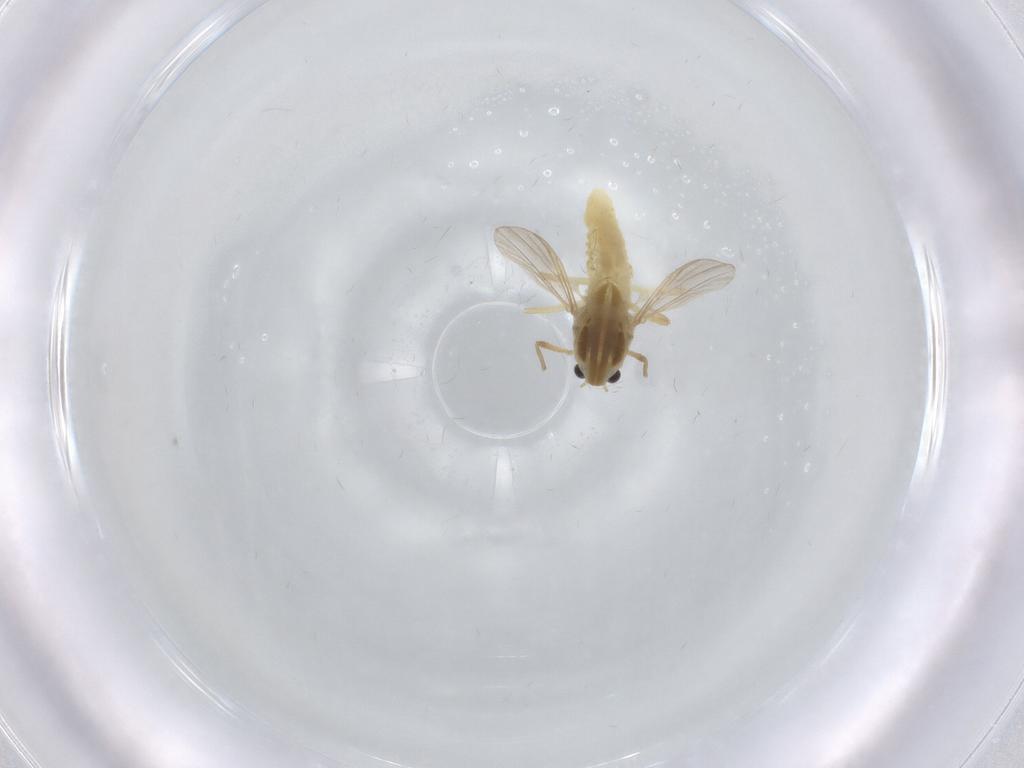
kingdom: Animalia
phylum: Arthropoda
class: Insecta
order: Diptera
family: Chironomidae
